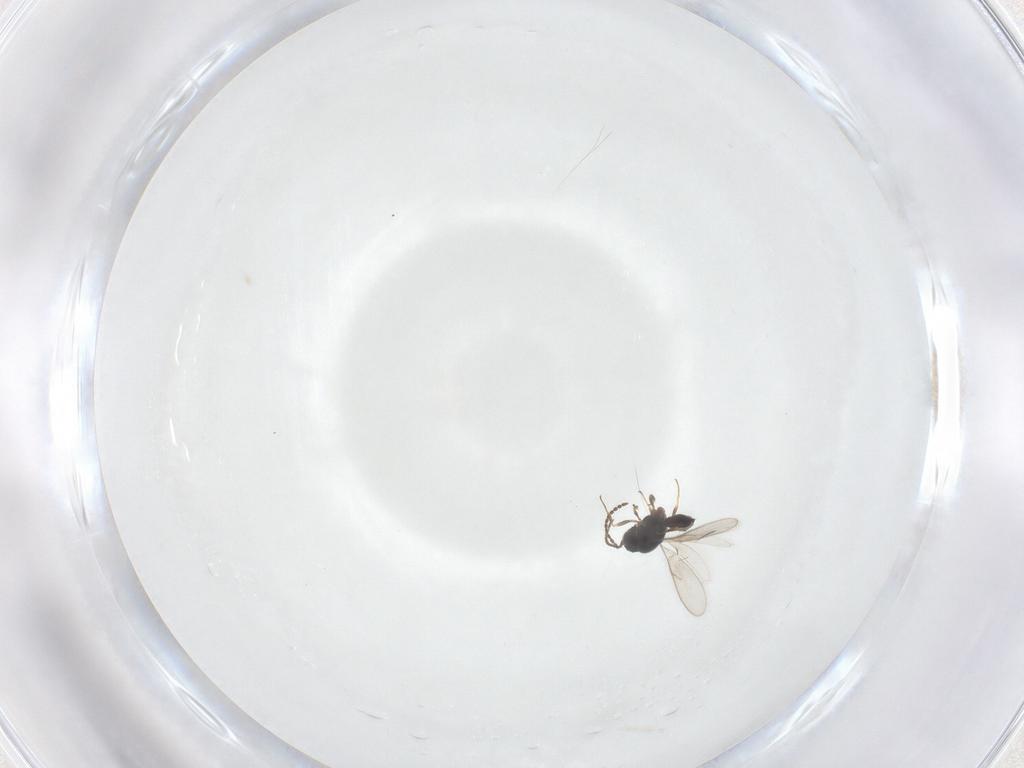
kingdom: Animalia
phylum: Arthropoda
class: Insecta
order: Hymenoptera
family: Scelionidae
